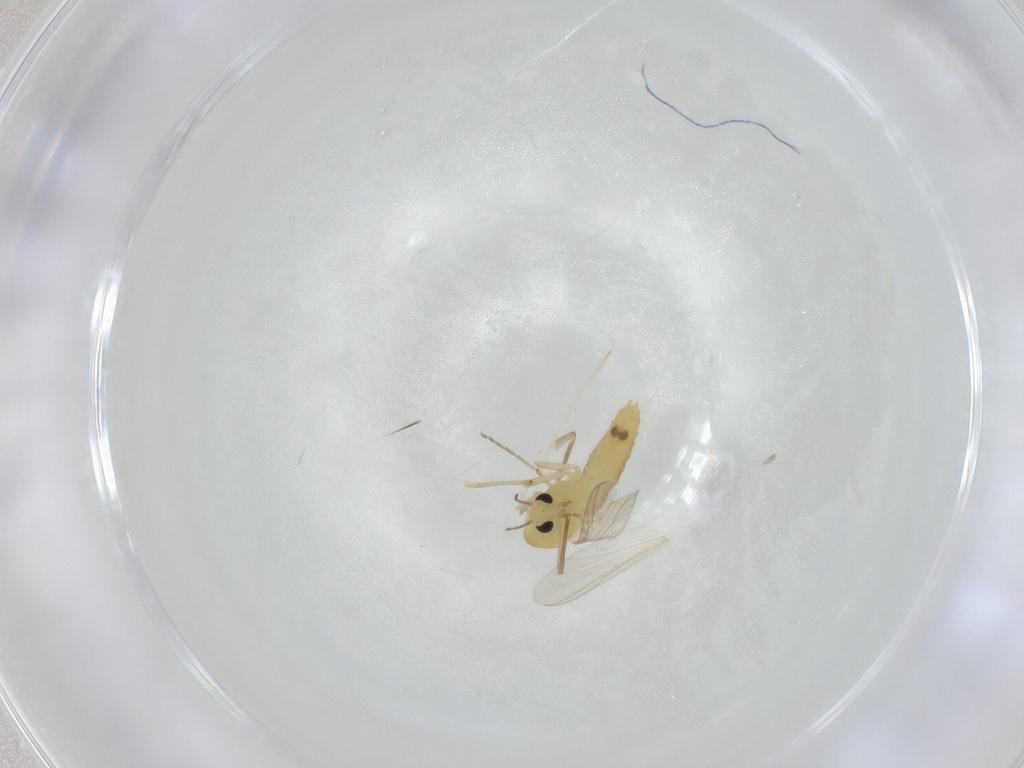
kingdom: Animalia
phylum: Arthropoda
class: Insecta
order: Diptera
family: Chironomidae
